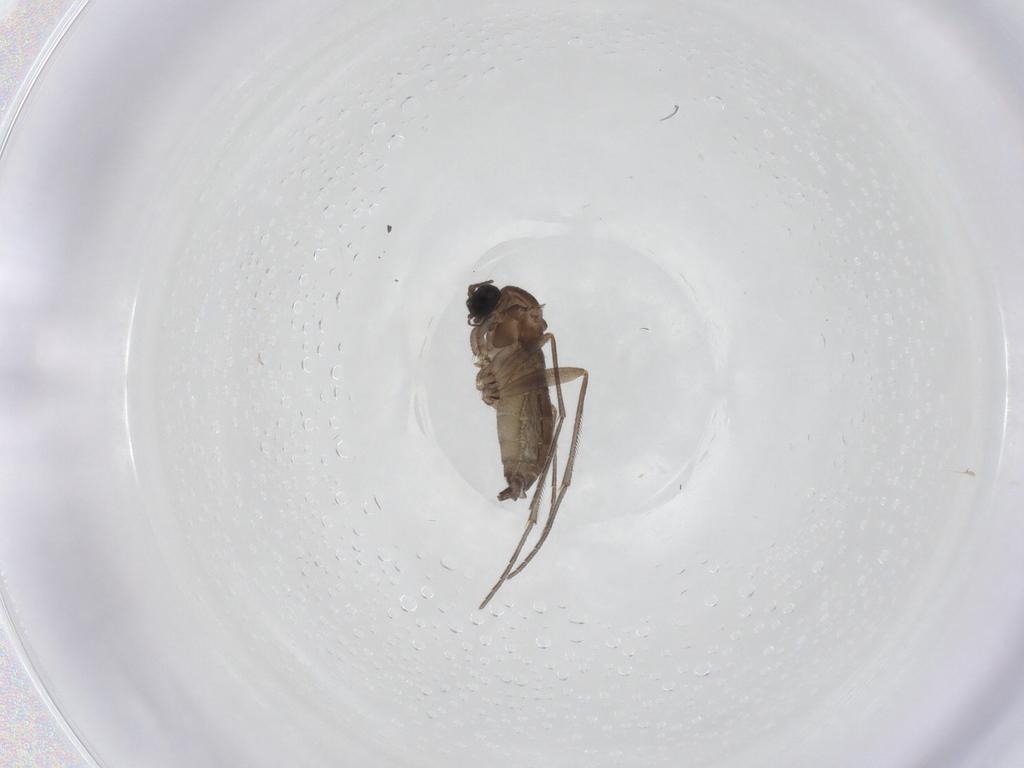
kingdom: Animalia
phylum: Arthropoda
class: Insecta
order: Diptera
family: Sciaridae
